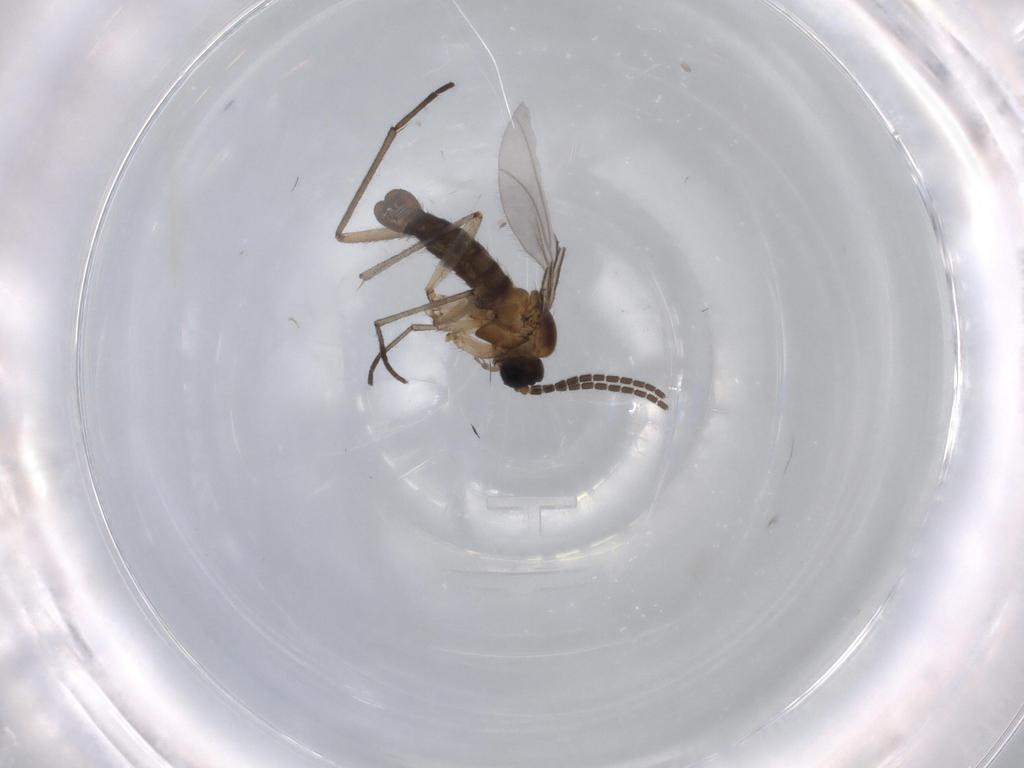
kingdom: Animalia
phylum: Arthropoda
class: Insecta
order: Diptera
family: Sciaridae
